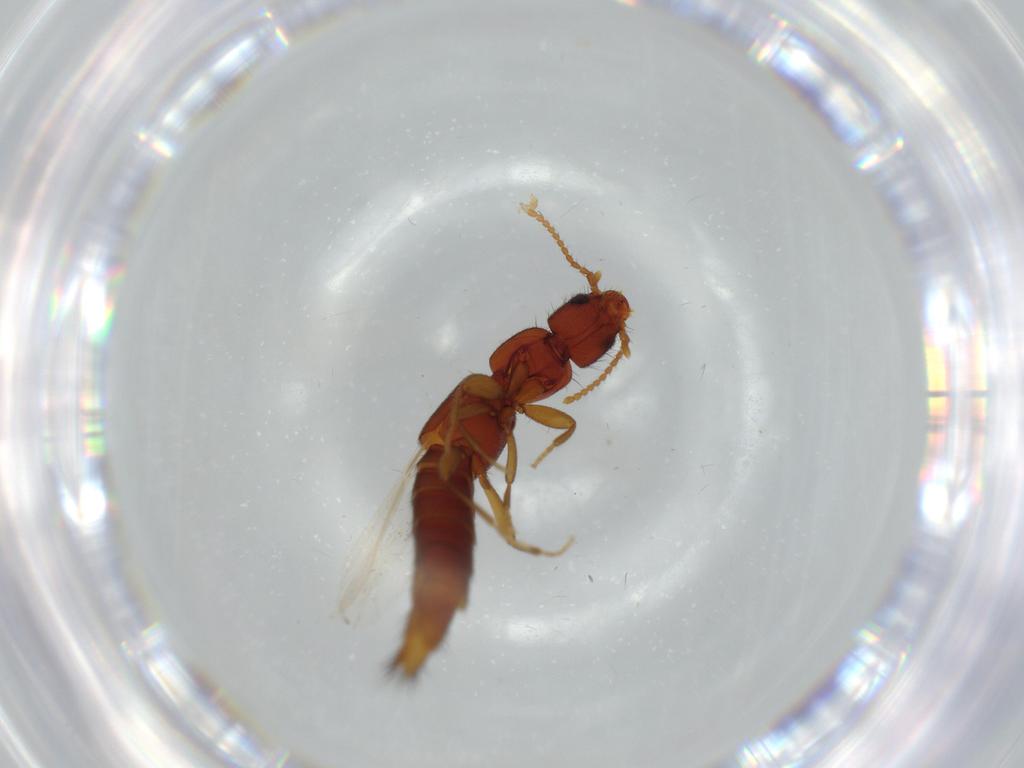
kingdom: Animalia
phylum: Arthropoda
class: Insecta
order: Coleoptera
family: Staphylinidae
